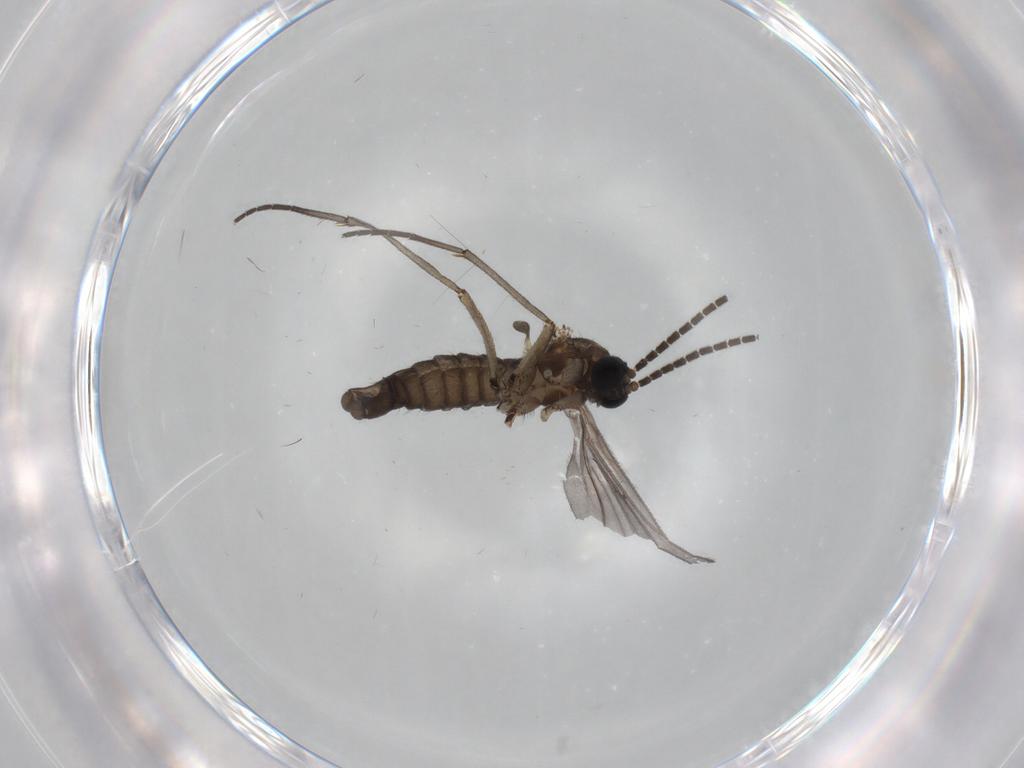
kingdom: Animalia
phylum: Arthropoda
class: Insecta
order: Diptera
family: Sciaridae
